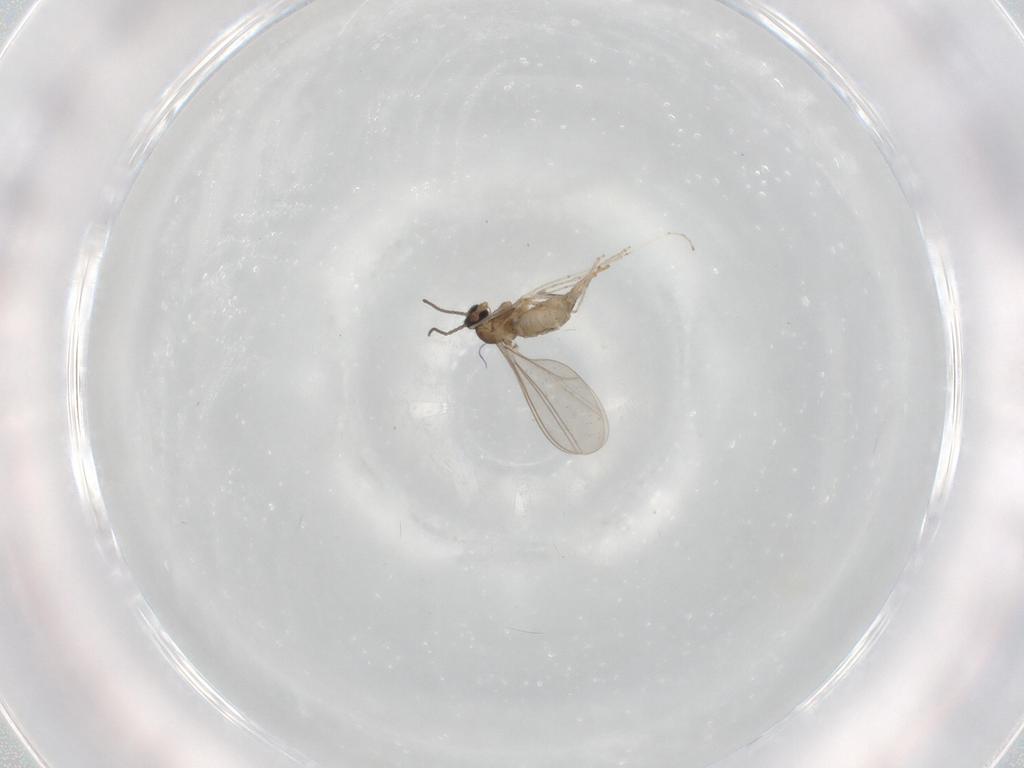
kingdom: Animalia
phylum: Arthropoda
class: Insecta
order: Diptera
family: Cecidomyiidae
